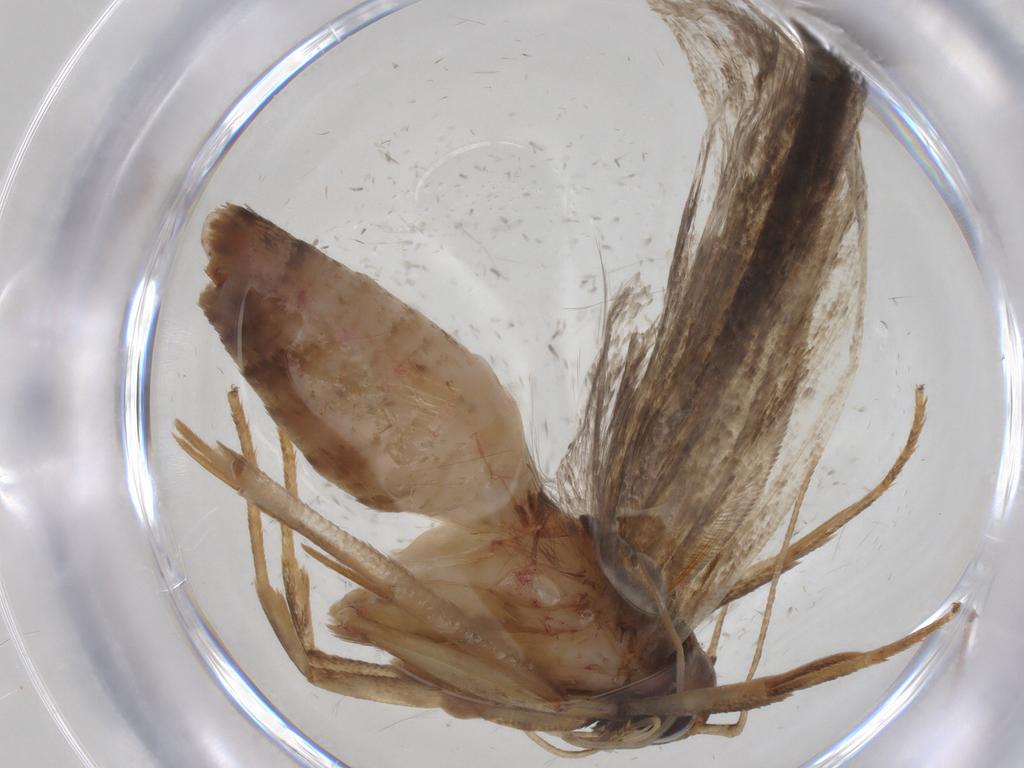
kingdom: Animalia
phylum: Arthropoda
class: Insecta
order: Lepidoptera
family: Gelechiidae
